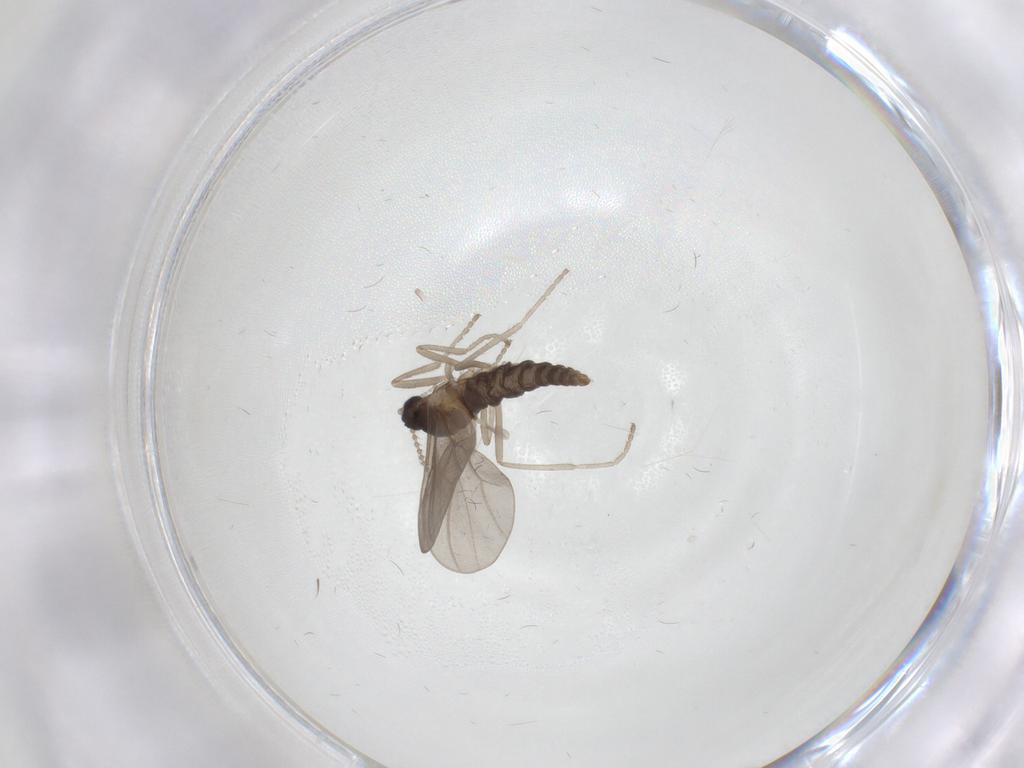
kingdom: Animalia
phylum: Arthropoda
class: Insecta
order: Diptera
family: Cecidomyiidae
